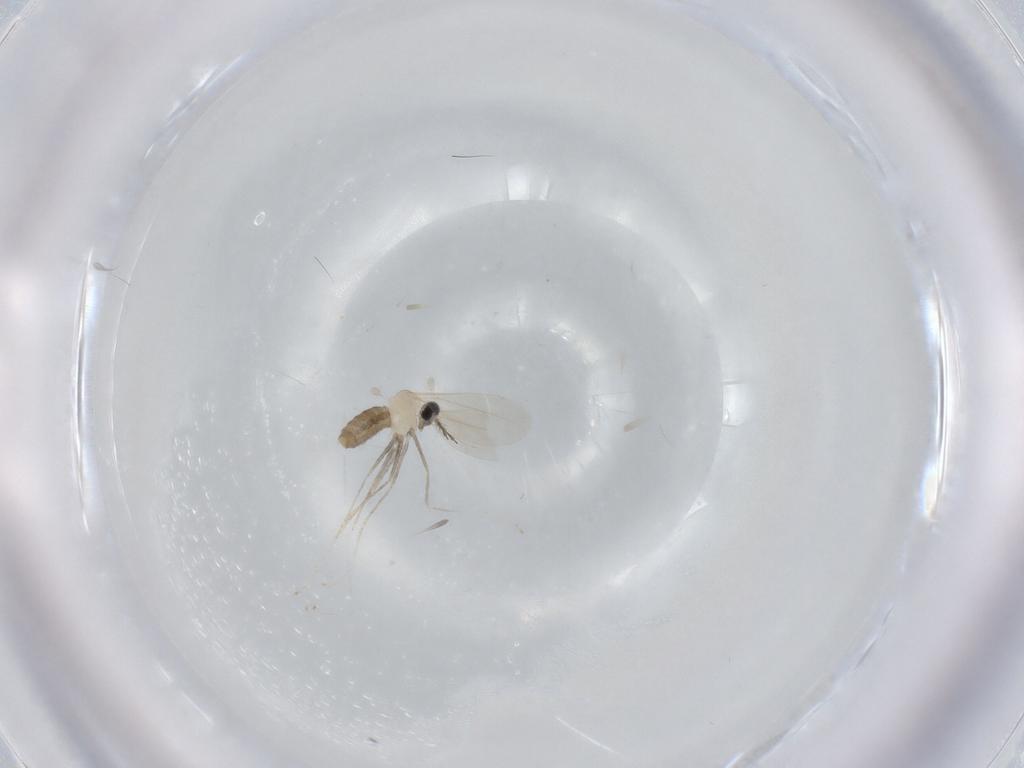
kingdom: Animalia
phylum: Arthropoda
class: Insecta
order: Diptera
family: Cecidomyiidae
